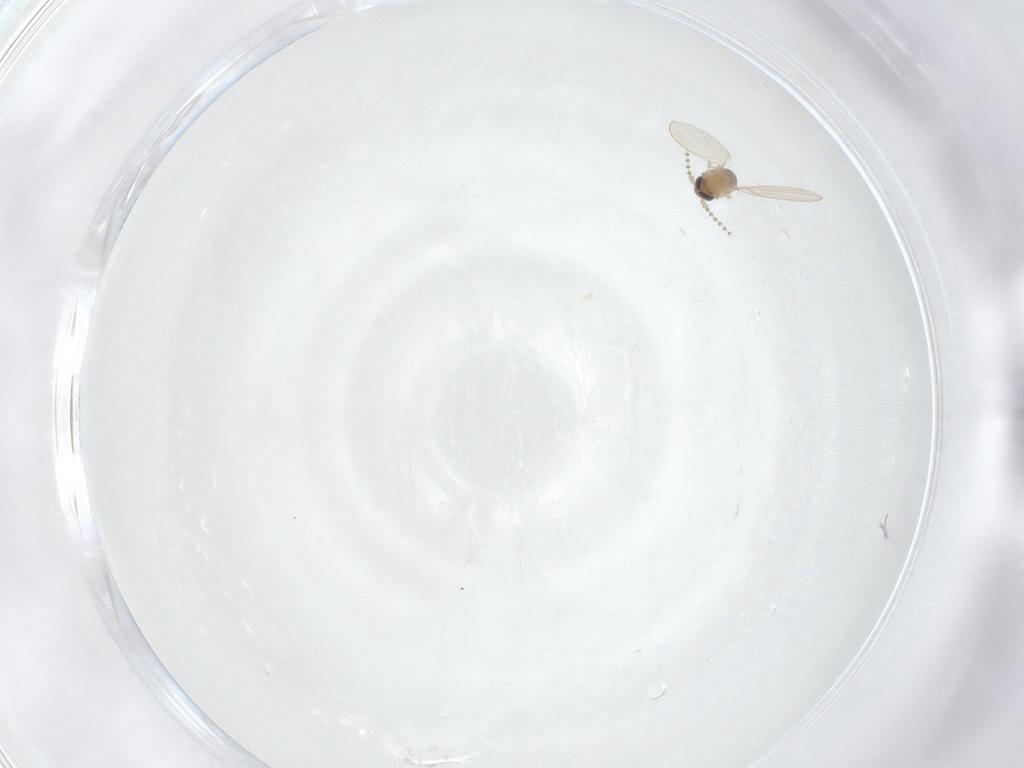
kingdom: Animalia
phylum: Arthropoda
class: Insecta
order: Diptera
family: Psychodidae
